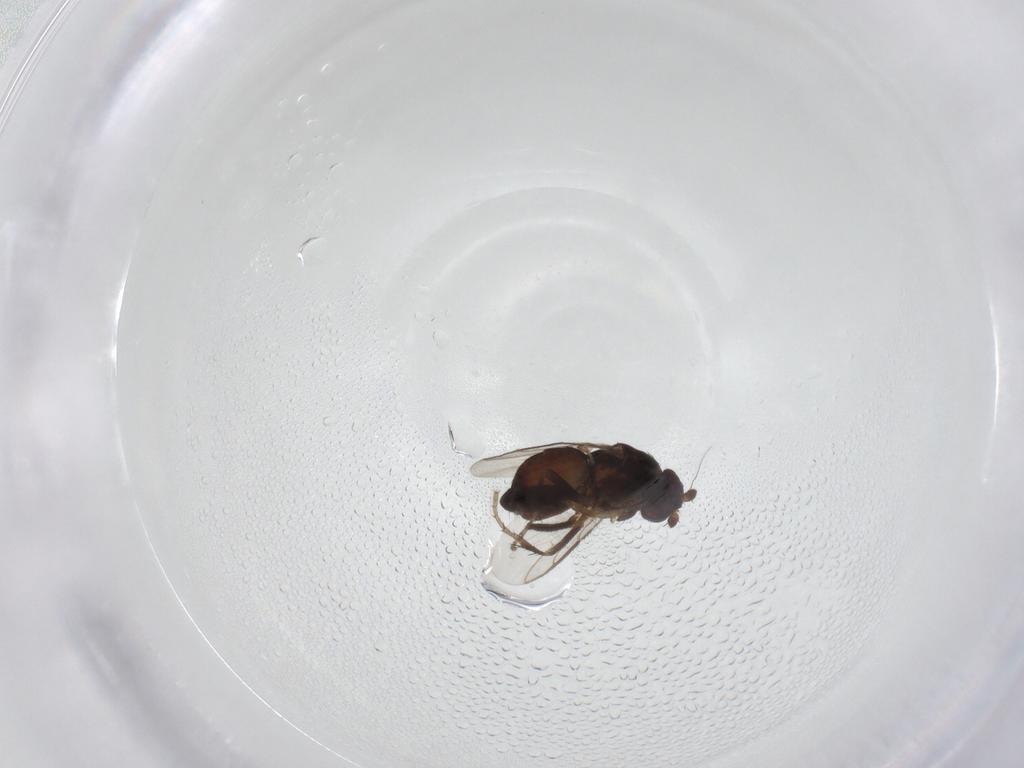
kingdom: Animalia
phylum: Arthropoda
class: Insecta
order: Diptera
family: Sphaeroceridae
